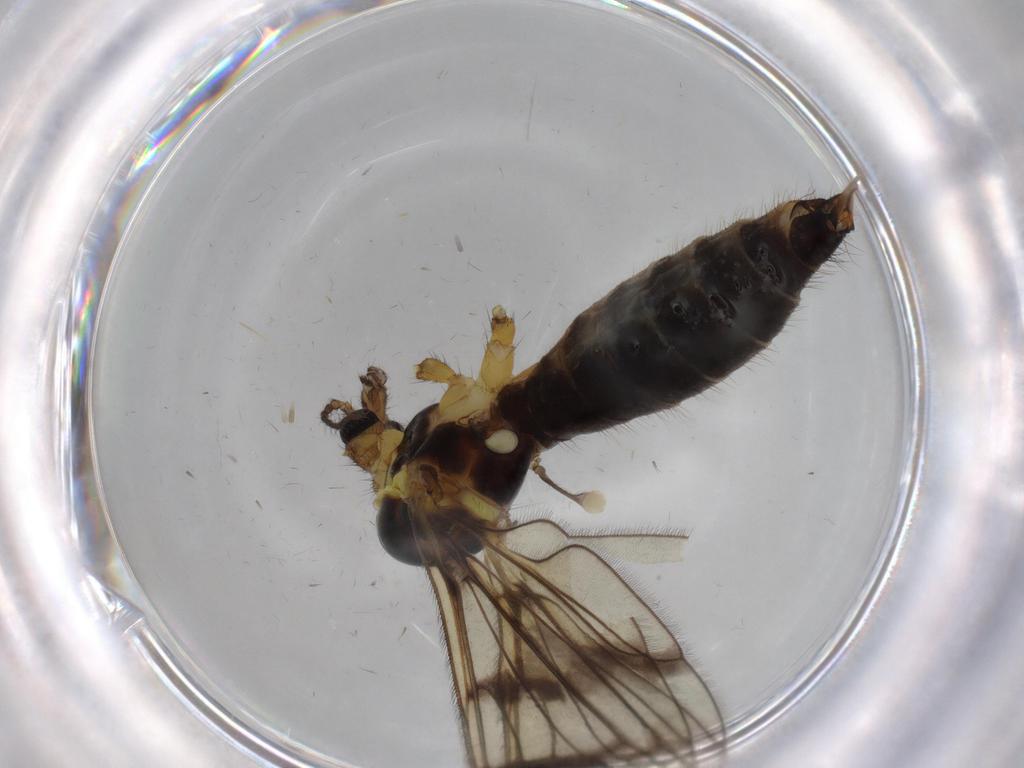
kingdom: Animalia
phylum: Arthropoda
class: Insecta
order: Diptera
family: Limoniidae
